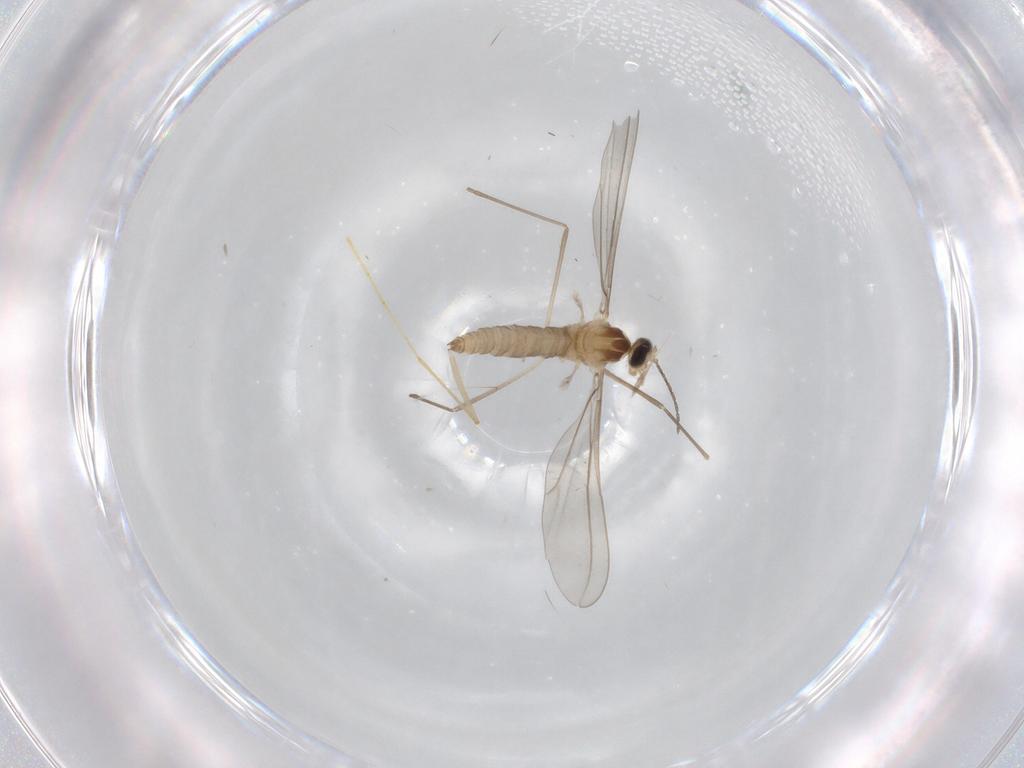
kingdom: Animalia
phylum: Arthropoda
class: Insecta
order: Diptera
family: Cecidomyiidae
